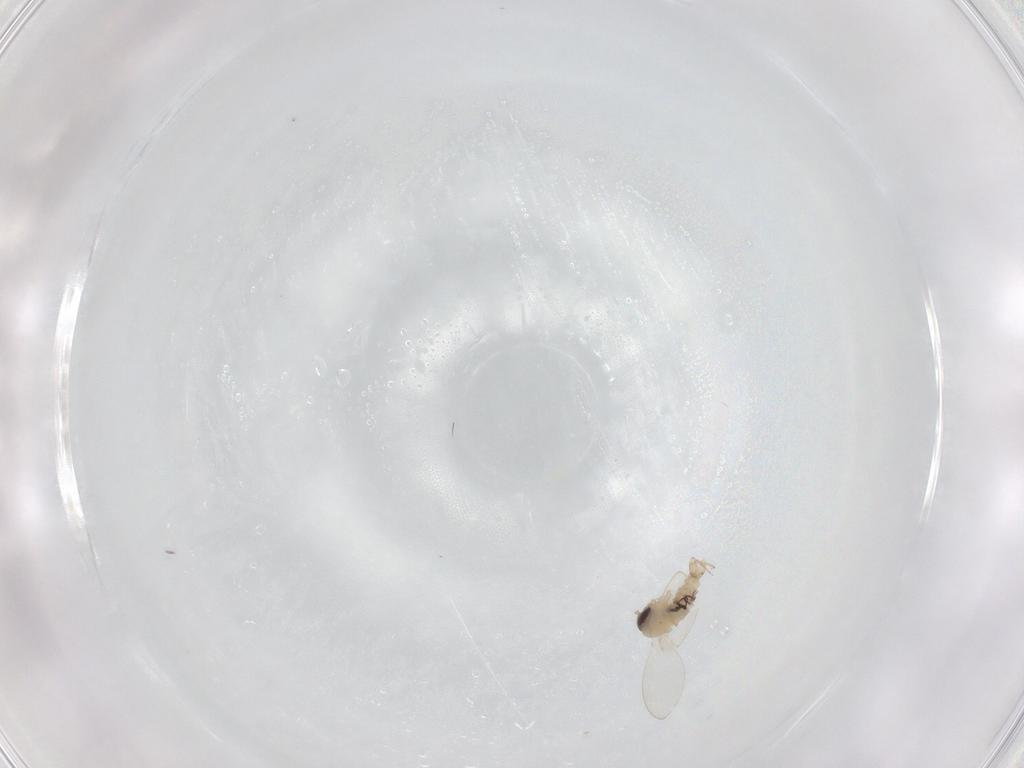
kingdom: Animalia
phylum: Arthropoda
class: Insecta
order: Diptera
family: Psychodidae
